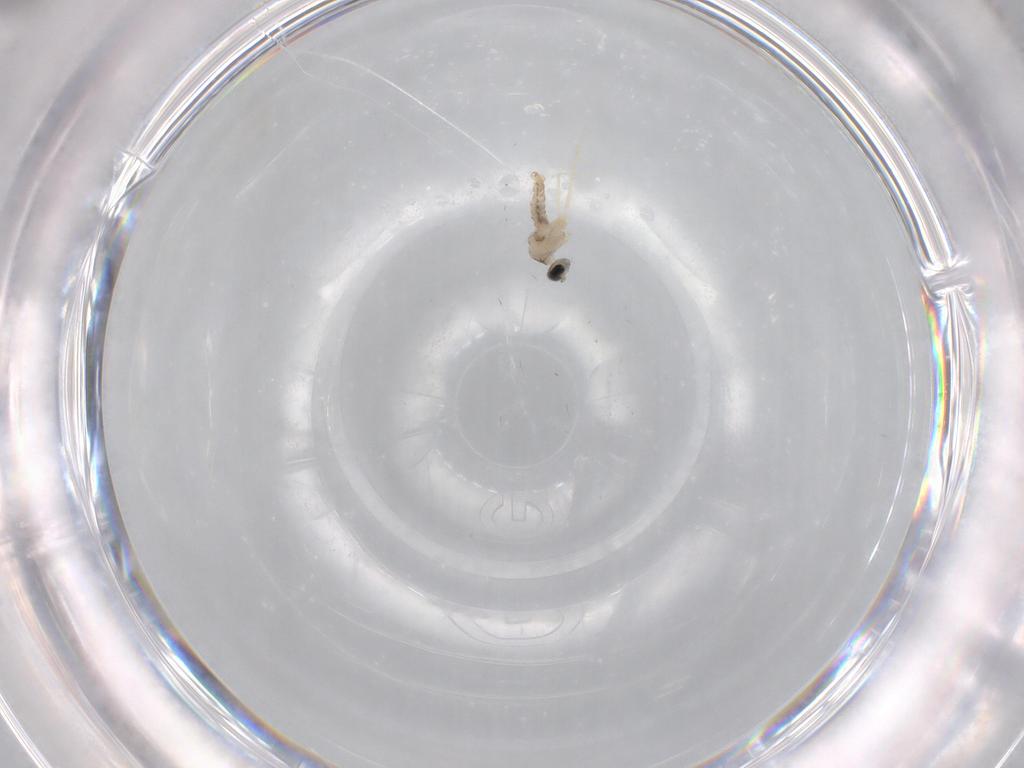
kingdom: Animalia
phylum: Arthropoda
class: Insecta
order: Diptera
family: Cecidomyiidae
